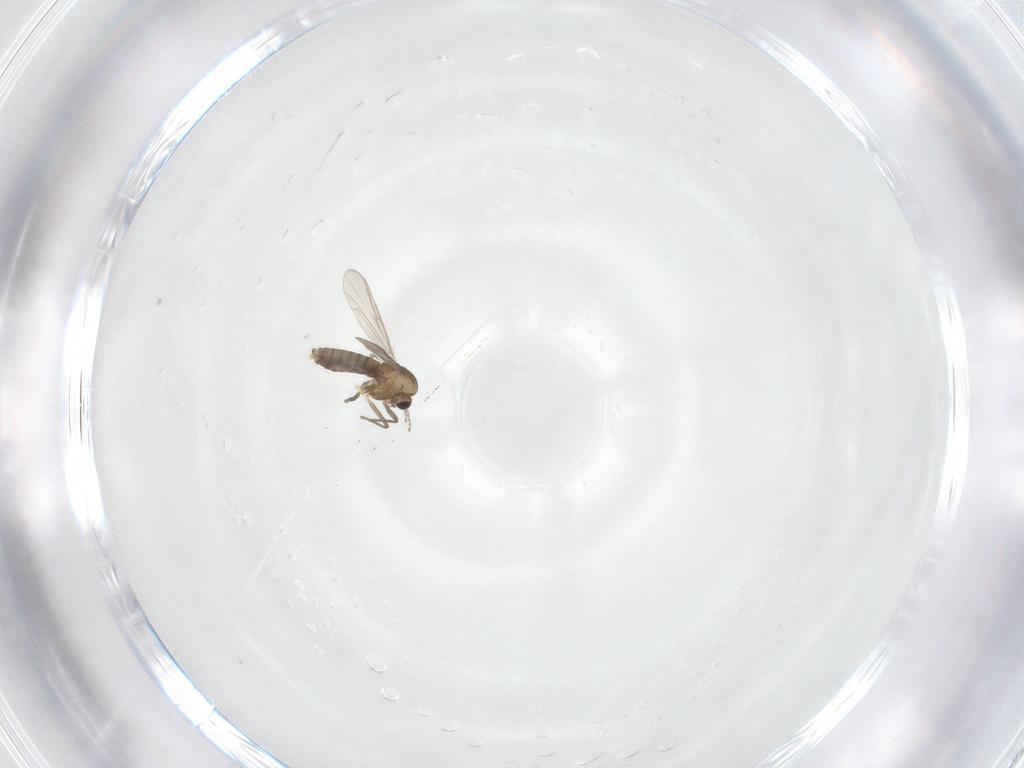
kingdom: Animalia
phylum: Arthropoda
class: Insecta
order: Diptera
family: Chironomidae
